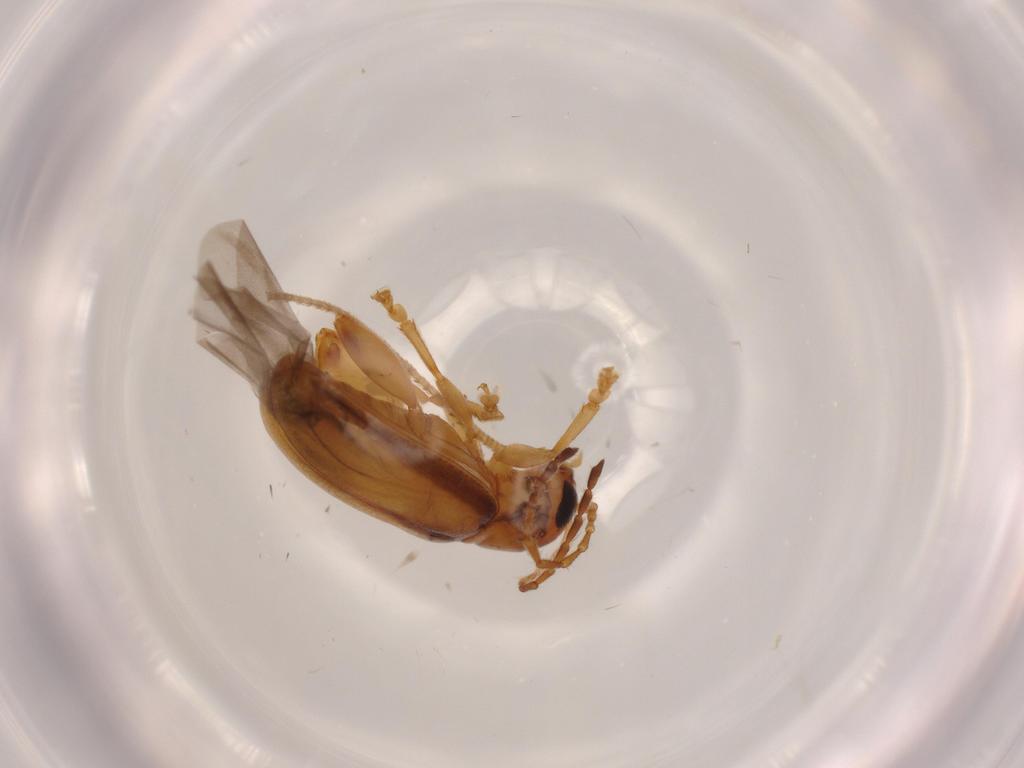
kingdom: Animalia
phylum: Arthropoda
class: Insecta
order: Coleoptera
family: Chrysomelidae
